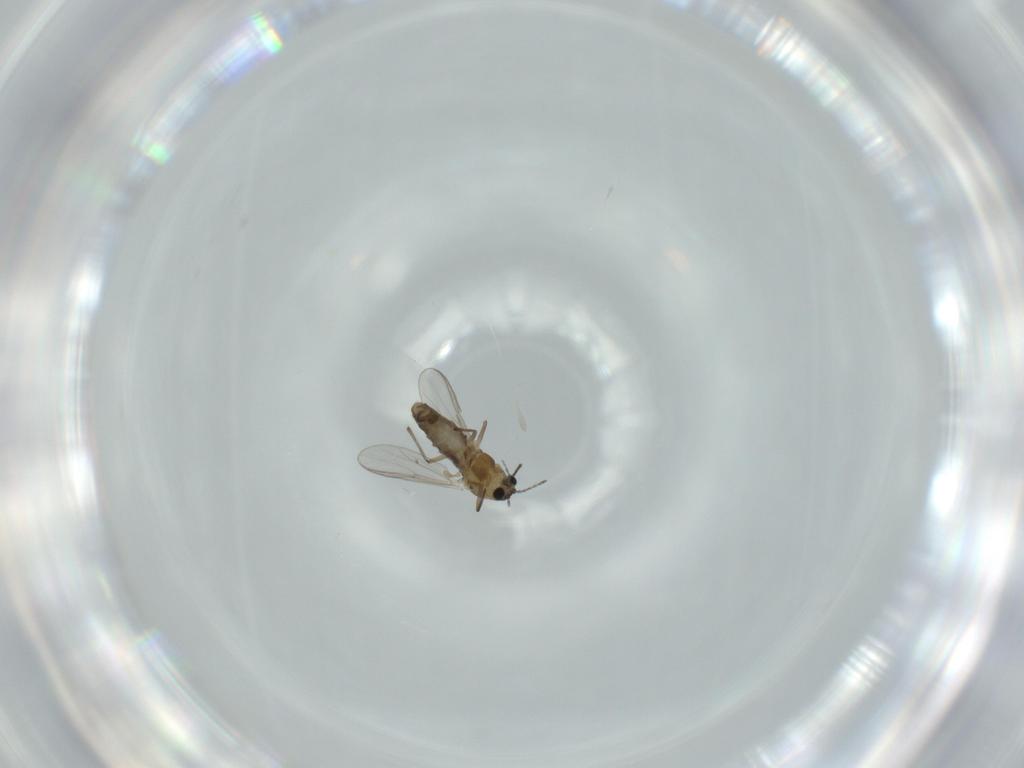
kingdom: Animalia
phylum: Arthropoda
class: Insecta
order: Diptera
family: Chironomidae
